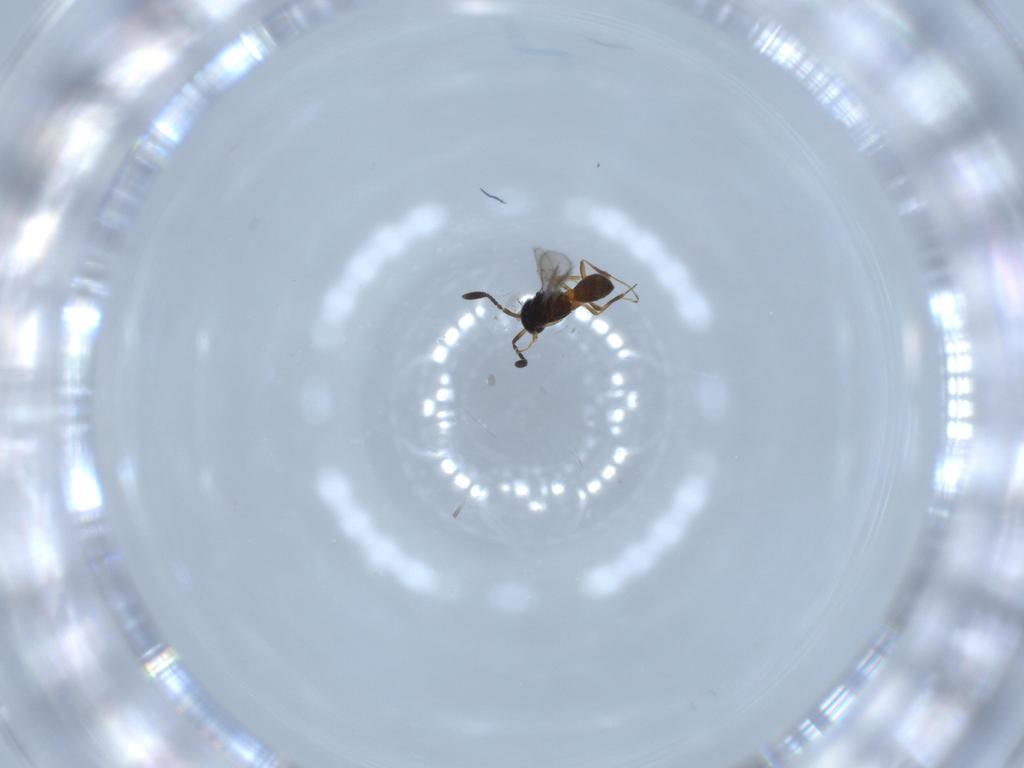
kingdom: Animalia
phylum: Arthropoda
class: Insecta
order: Hymenoptera
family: Scelionidae
